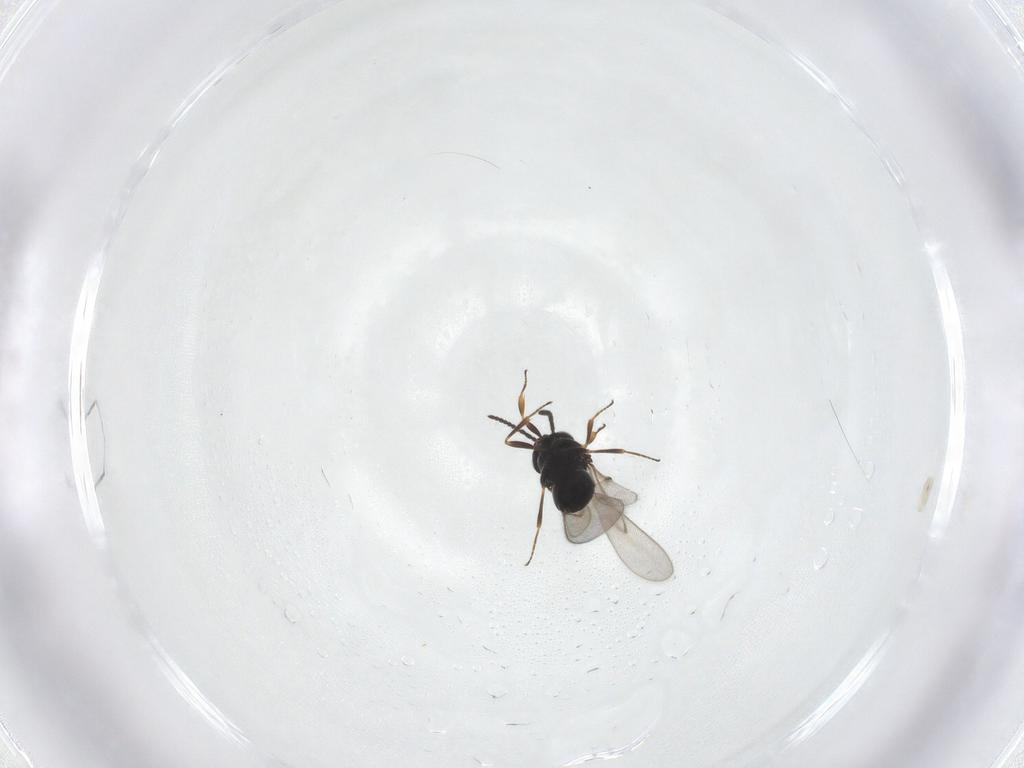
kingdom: Animalia
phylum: Arthropoda
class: Insecta
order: Hymenoptera
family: Scelionidae
